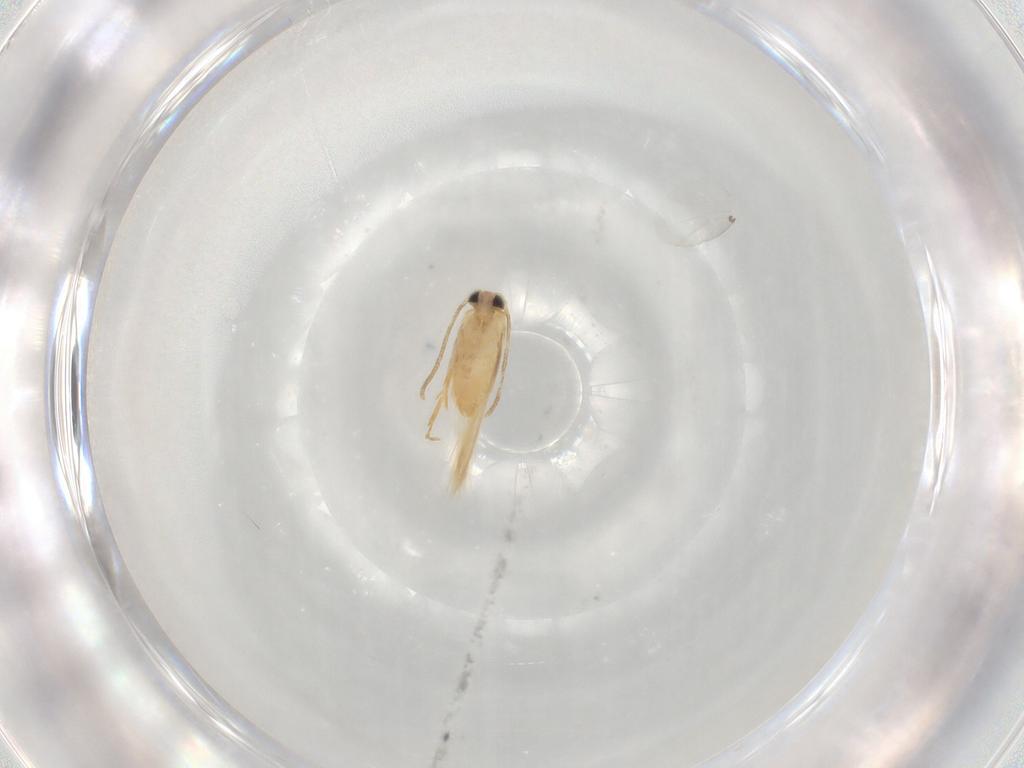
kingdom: Animalia
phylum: Arthropoda
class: Insecta
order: Lepidoptera
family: Nepticulidae
